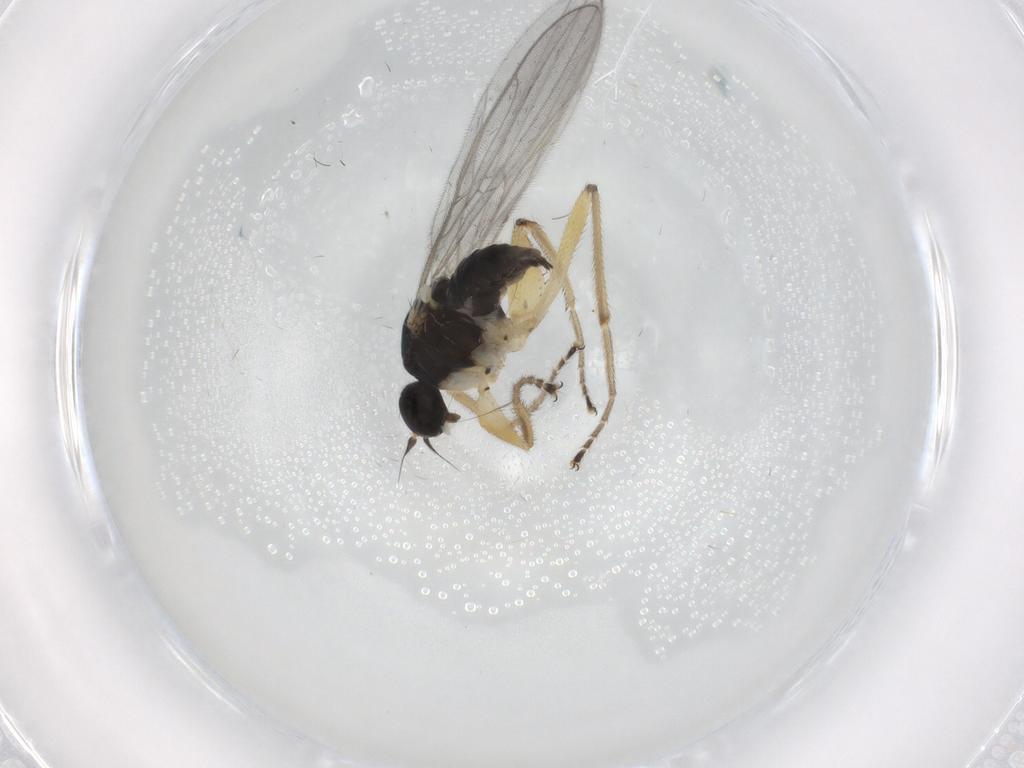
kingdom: Animalia
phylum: Arthropoda
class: Insecta
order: Diptera
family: Hybotidae
